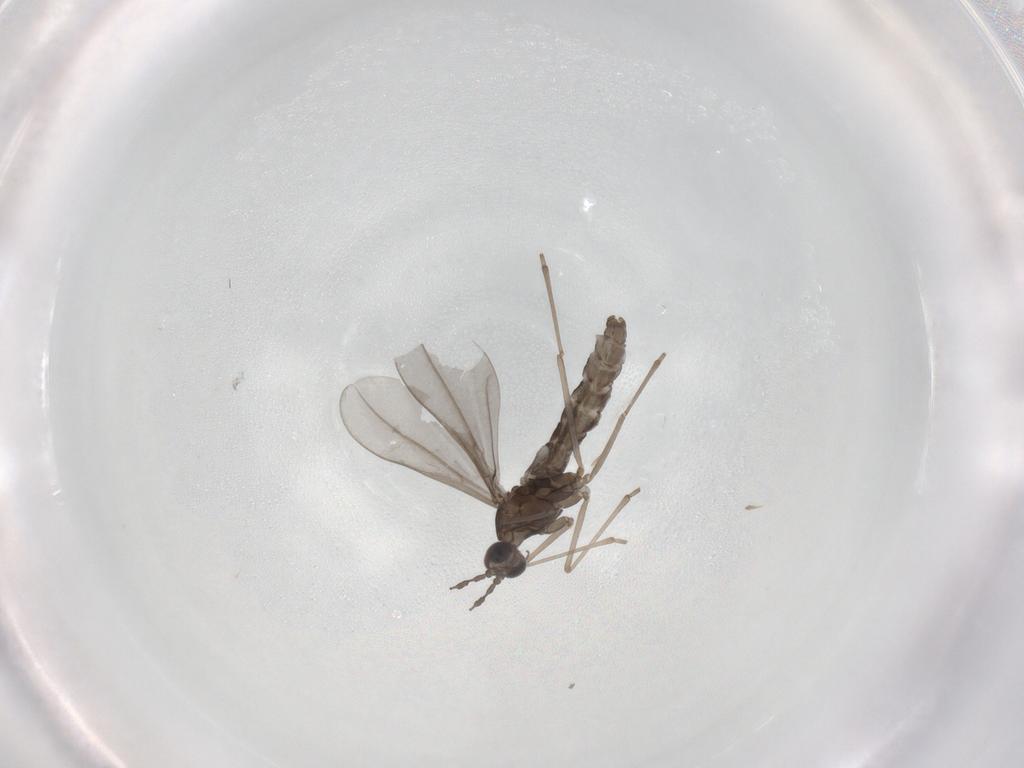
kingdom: Animalia
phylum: Arthropoda
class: Insecta
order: Diptera
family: Cecidomyiidae
